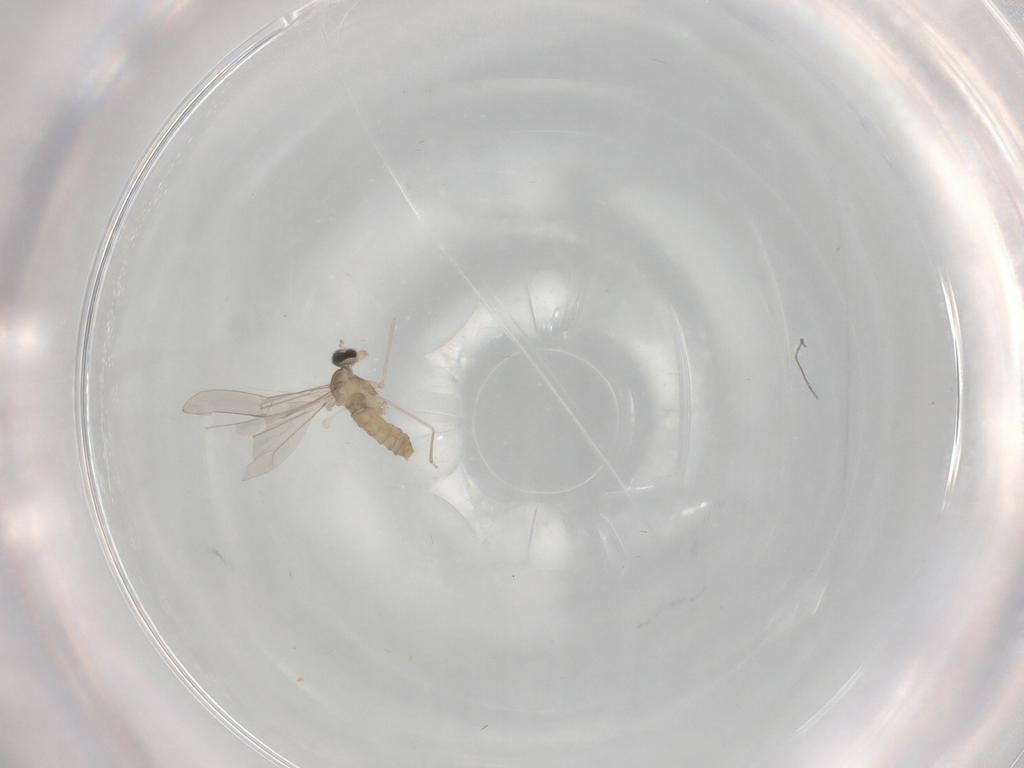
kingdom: Animalia
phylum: Arthropoda
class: Insecta
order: Diptera
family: Cecidomyiidae
